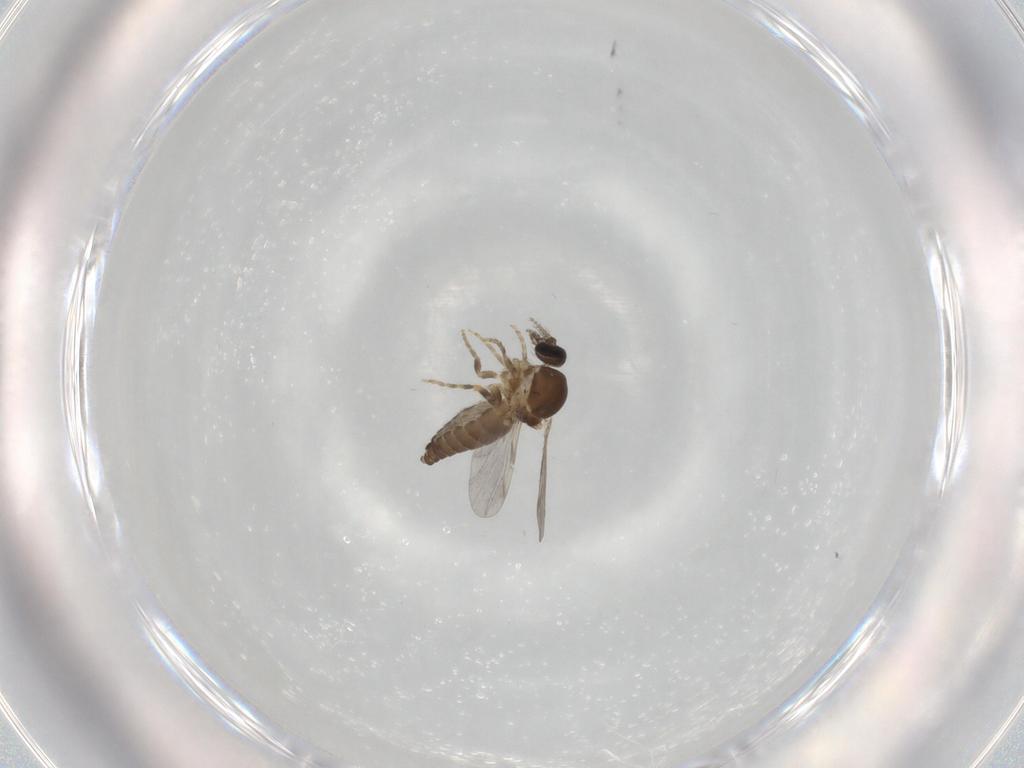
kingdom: Animalia
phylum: Arthropoda
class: Insecta
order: Diptera
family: Ceratopogonidae
